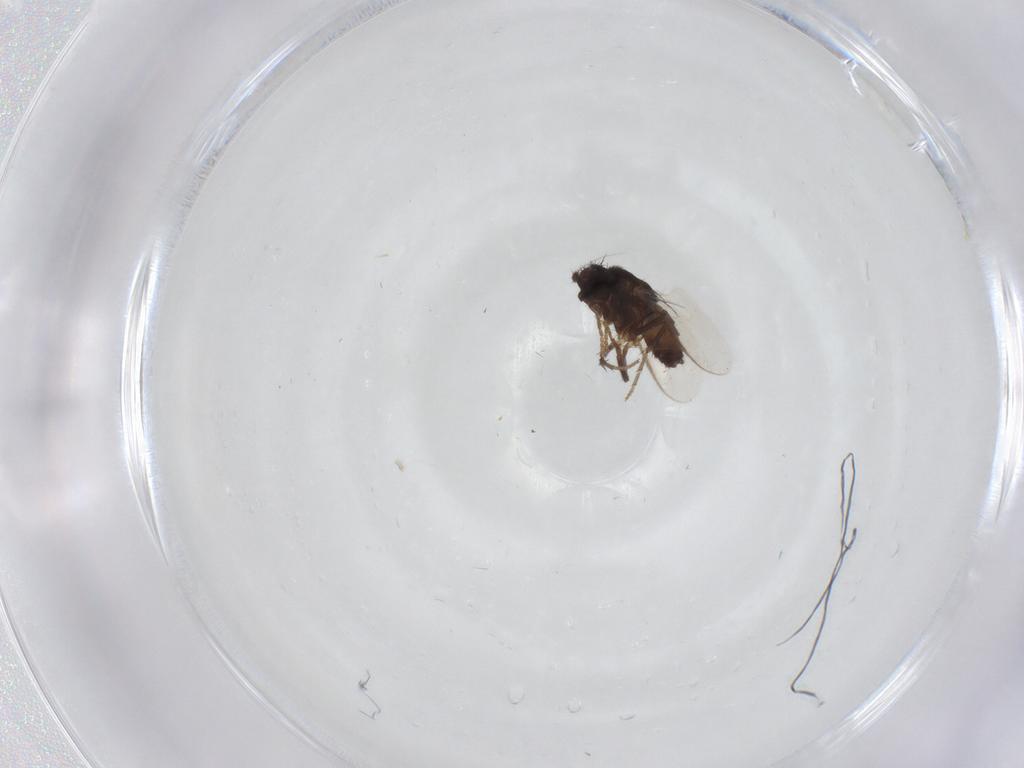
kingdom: Animalia
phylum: Arthropoda
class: Insecta
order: Diptera
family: Sphaeroceridae
